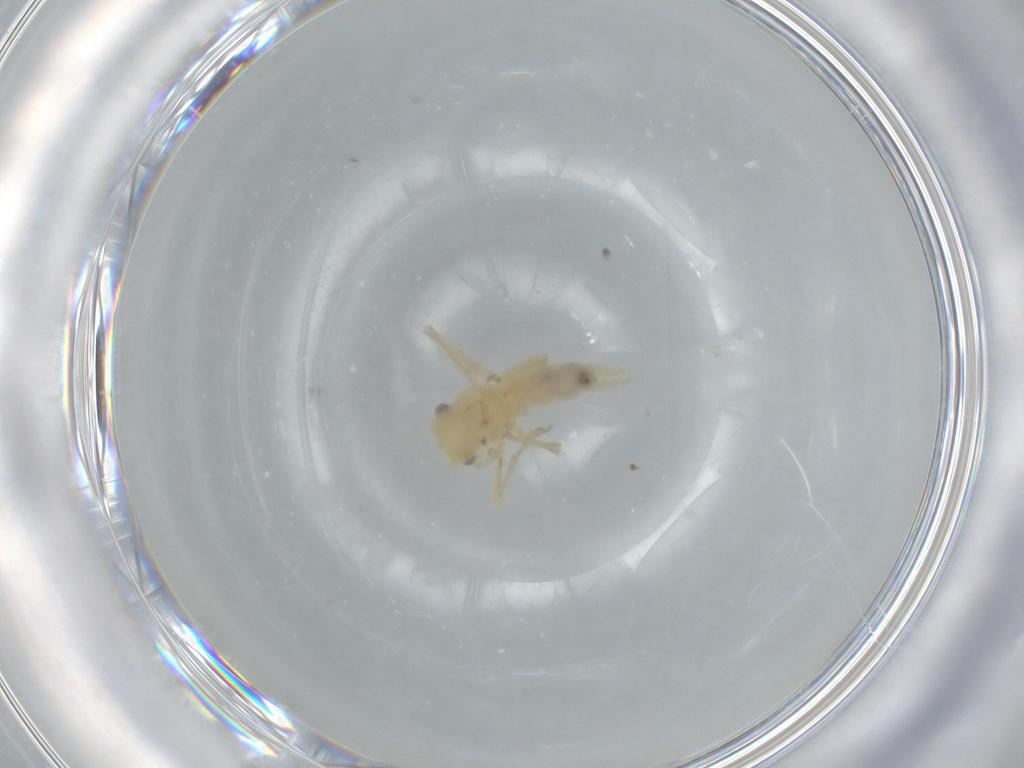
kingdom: Animalia
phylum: Arthropoda
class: Insecta
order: Orthoptera
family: Trigonidiidae
